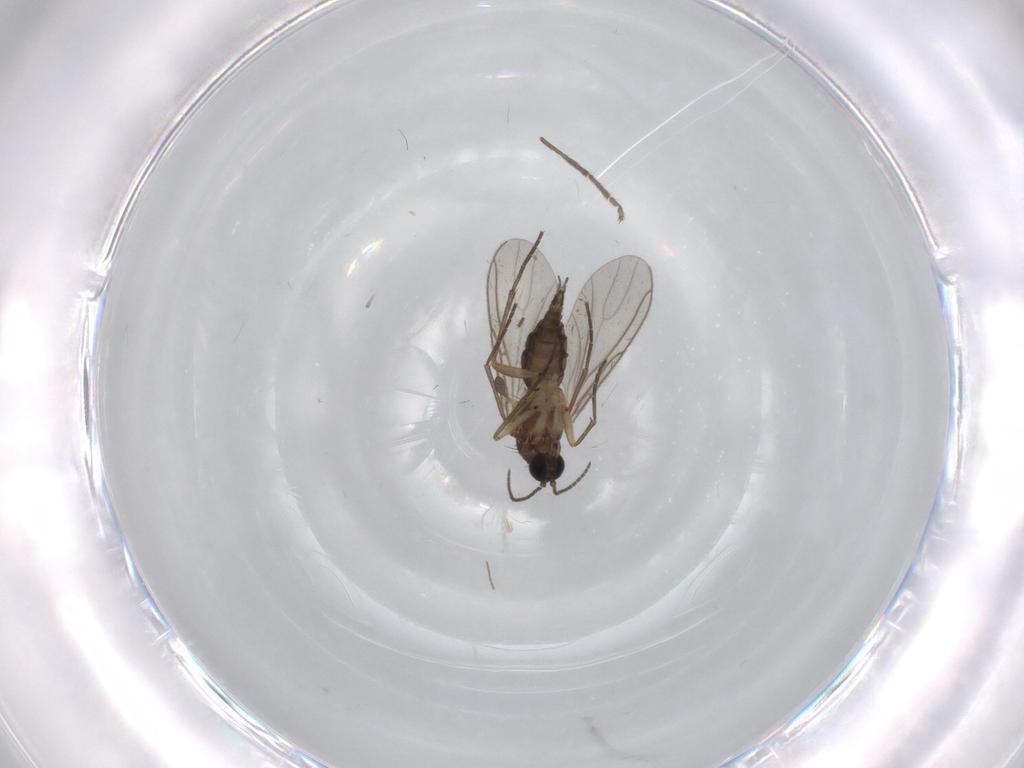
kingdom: Animalia
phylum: Arthropoda
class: Insecta
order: Diptera
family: Sciaridae
